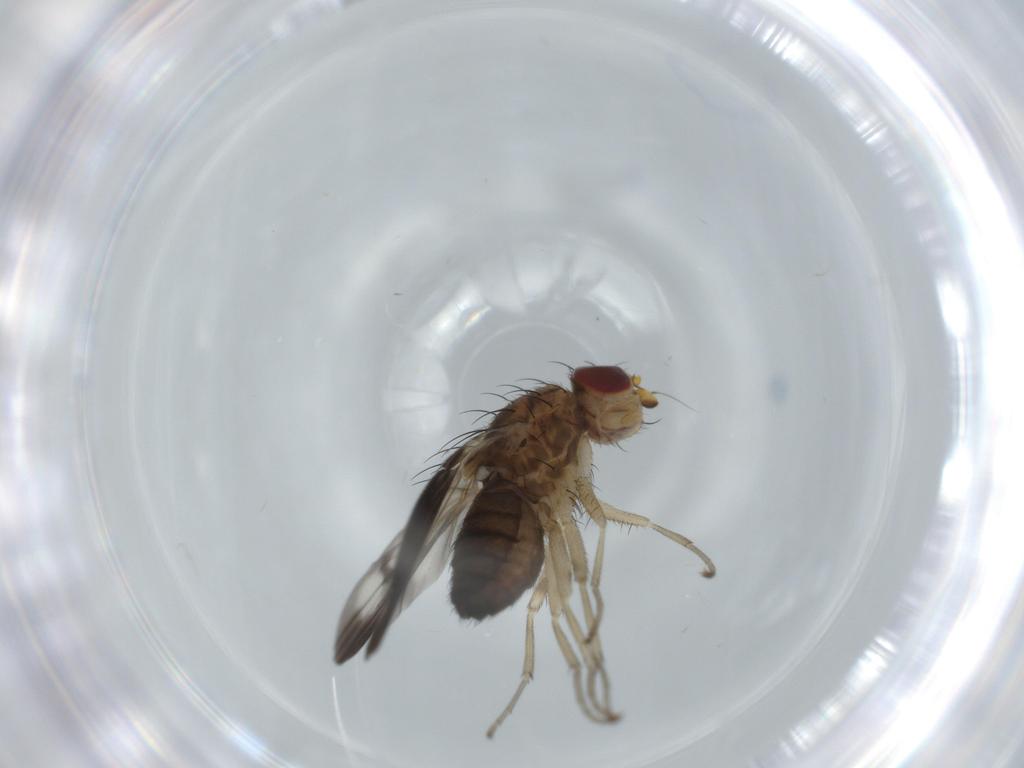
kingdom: Animalia
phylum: Arthropoda
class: Insecta
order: Diptera
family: Heleomyzidae
